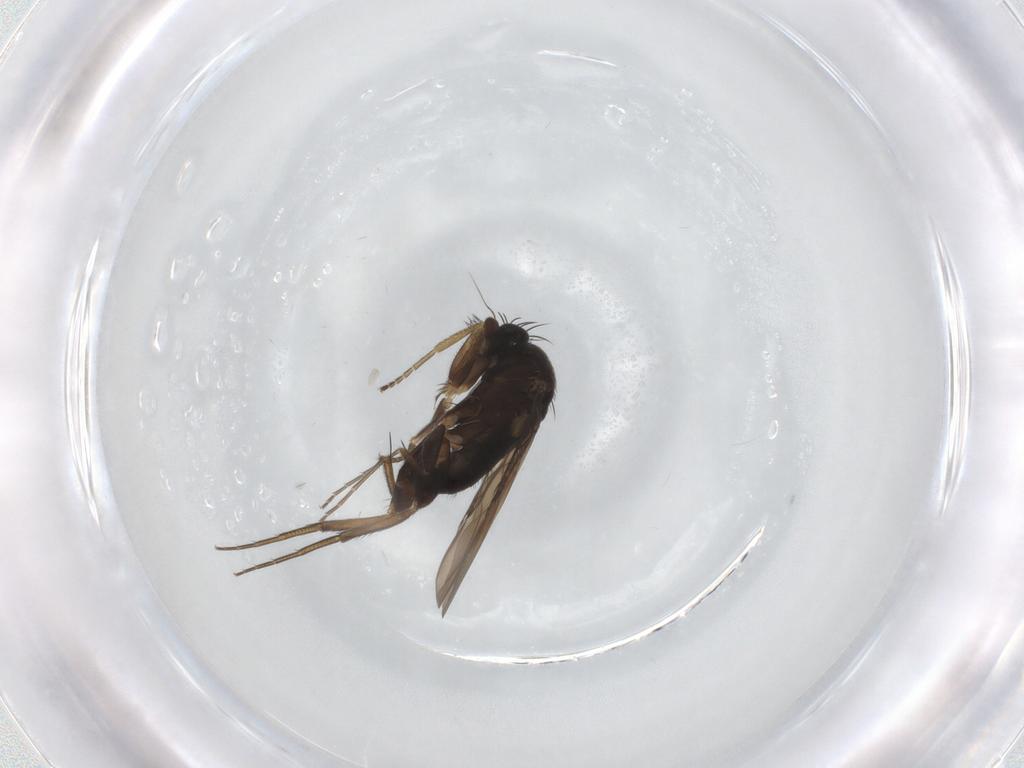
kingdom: Animalia
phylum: Arthropoda
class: Insecta
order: Diptera
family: Phoridae
